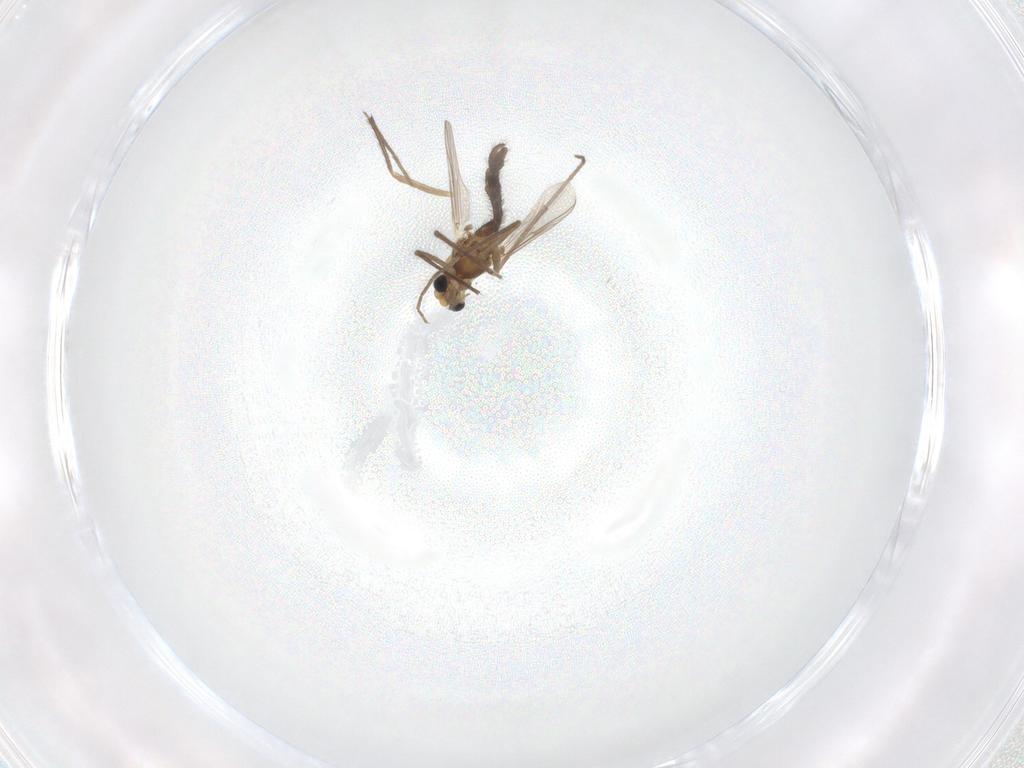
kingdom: Animalia
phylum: Arthropoda
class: Insecta
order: Diptera
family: Chironomidae
